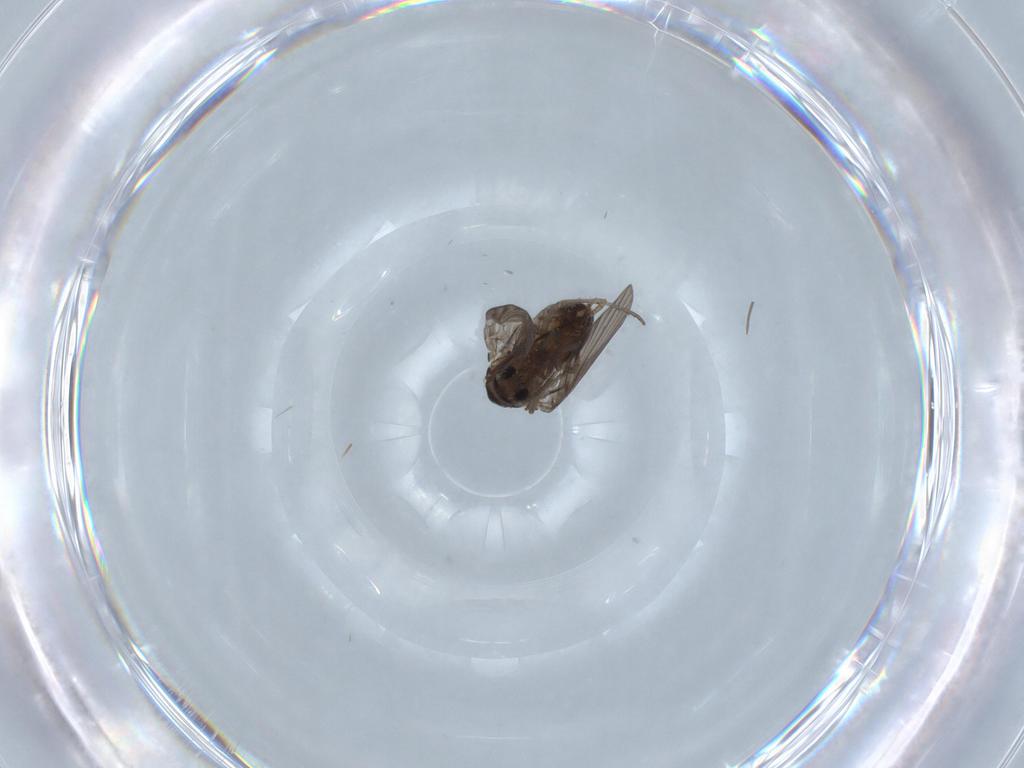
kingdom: Animalia
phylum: Arthropoda
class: Insecta
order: Diptera
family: Psychodidae
